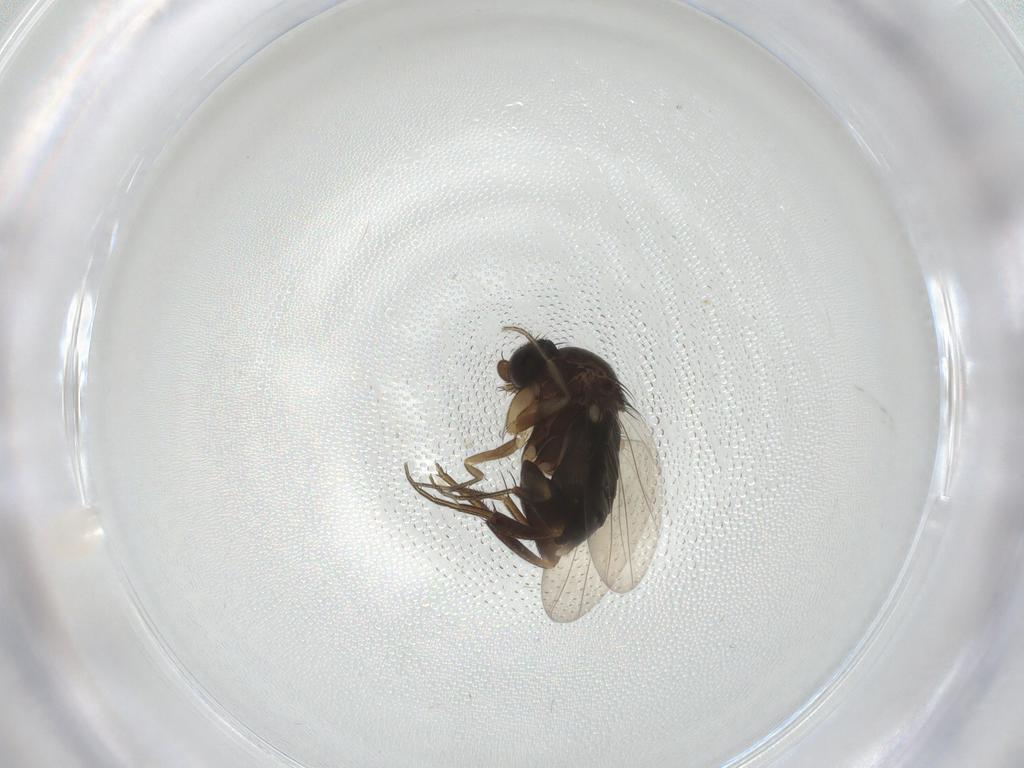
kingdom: Animalia
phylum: Arthropoda
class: Insecta
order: Diptera
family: Phoridae
